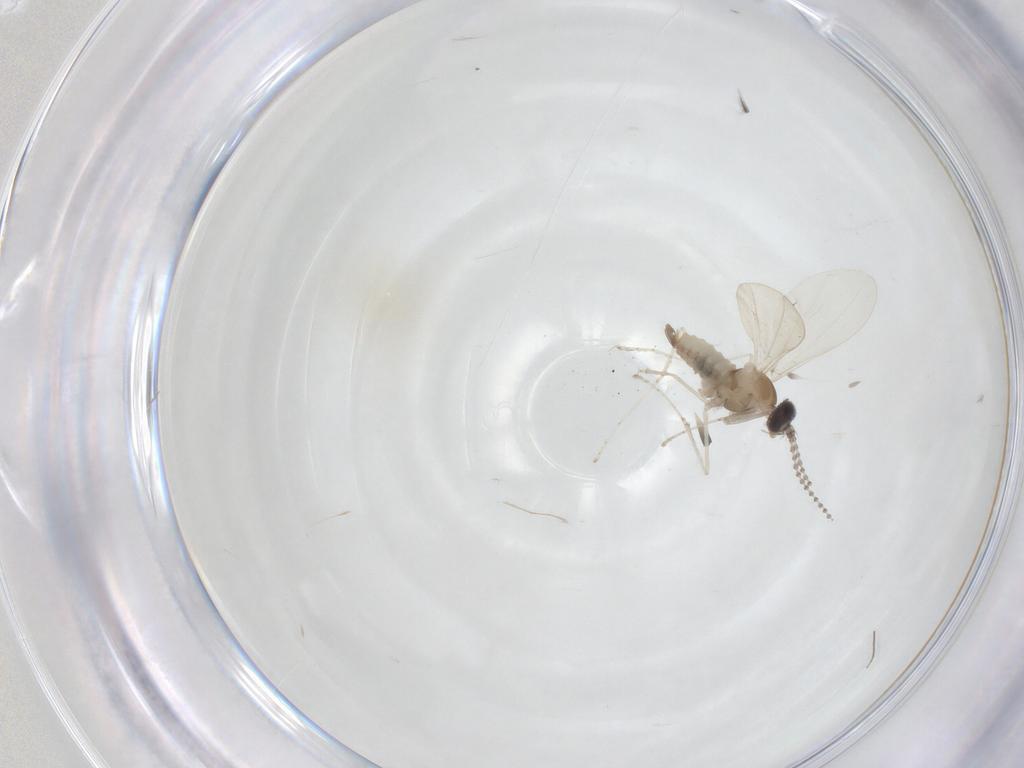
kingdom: Animalia
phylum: Arthropoda
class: Insecta
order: Diptera
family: Cecidomyiidae
